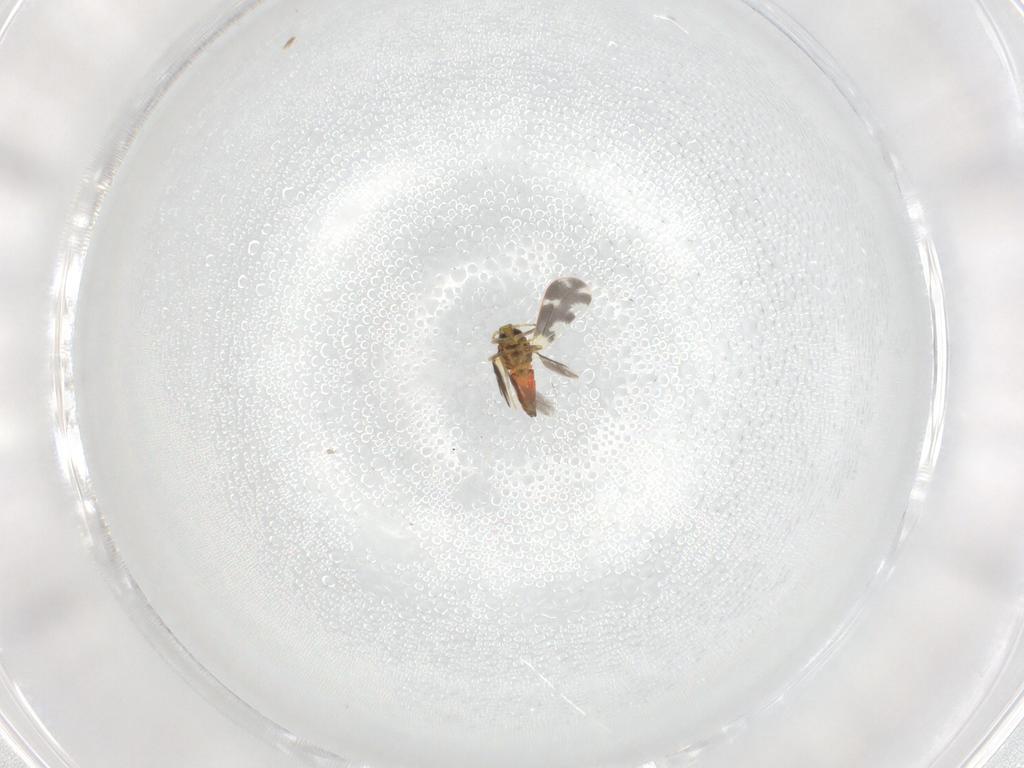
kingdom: Animalia
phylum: Arthropoda
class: Insecta
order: Hemiptera
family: Aleyrodidae
